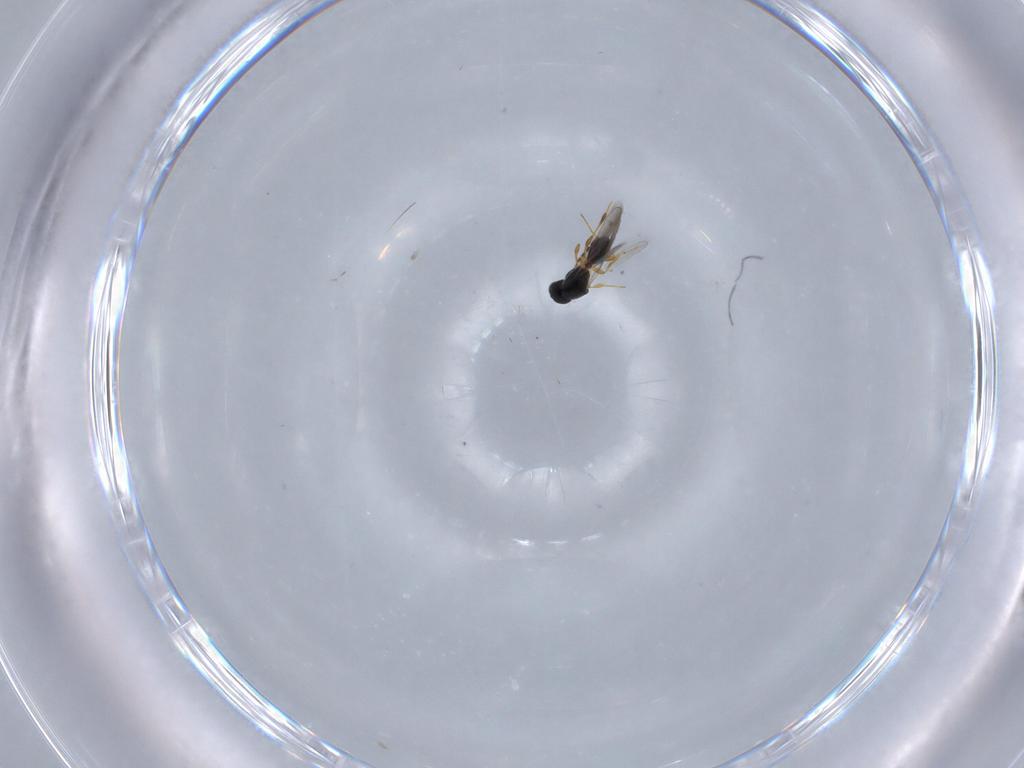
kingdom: Animalia
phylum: Arthropoda
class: Insecta
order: Hymenoptera
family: Platygastridae
